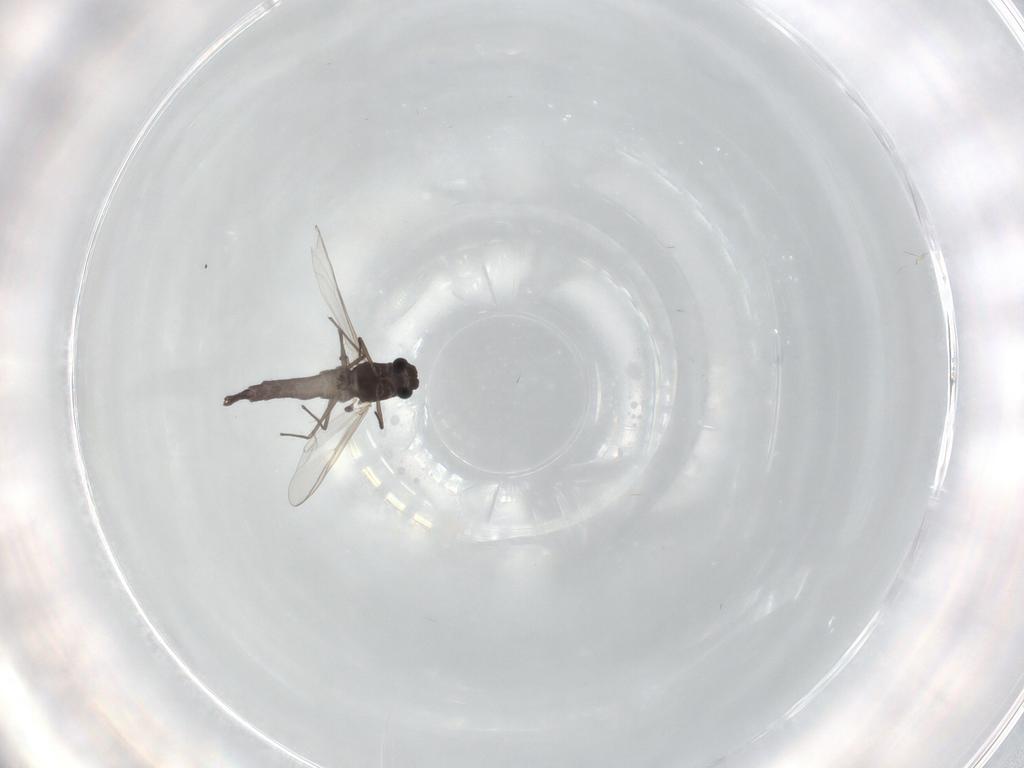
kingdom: Animalia
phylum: Arthropoda
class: Insecta
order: Diptera
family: Chironomidae
